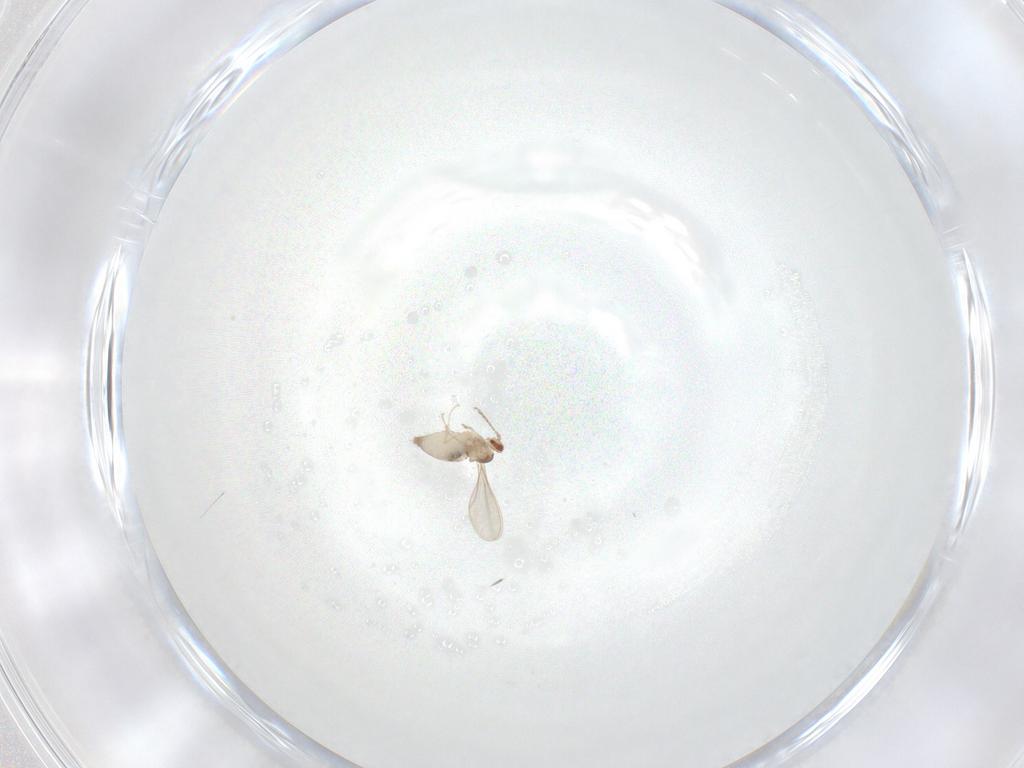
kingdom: Animalia
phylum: Arthropoda
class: Insecta
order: Diptera
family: Cecidomyiidae
